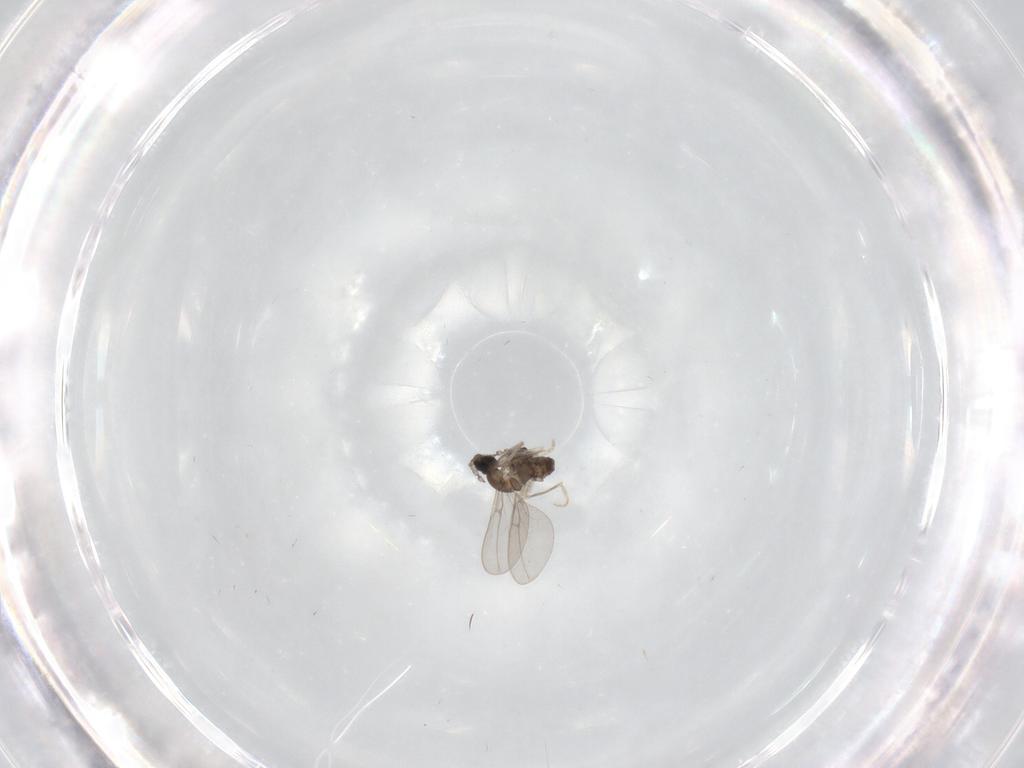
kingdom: Animalia
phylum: Arthropoda
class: Insecta
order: Diptera
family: Cecidomyiidae
